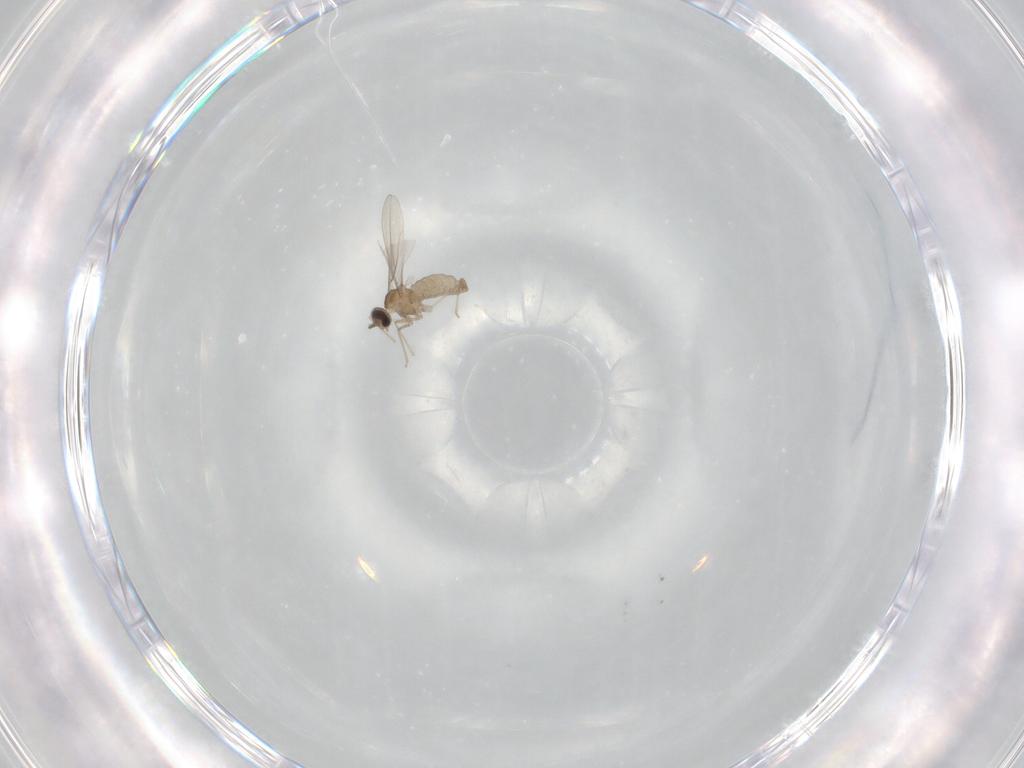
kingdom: Animalia
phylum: Arthropoda
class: Insecta
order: Diptera
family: Cecidomyiidae
